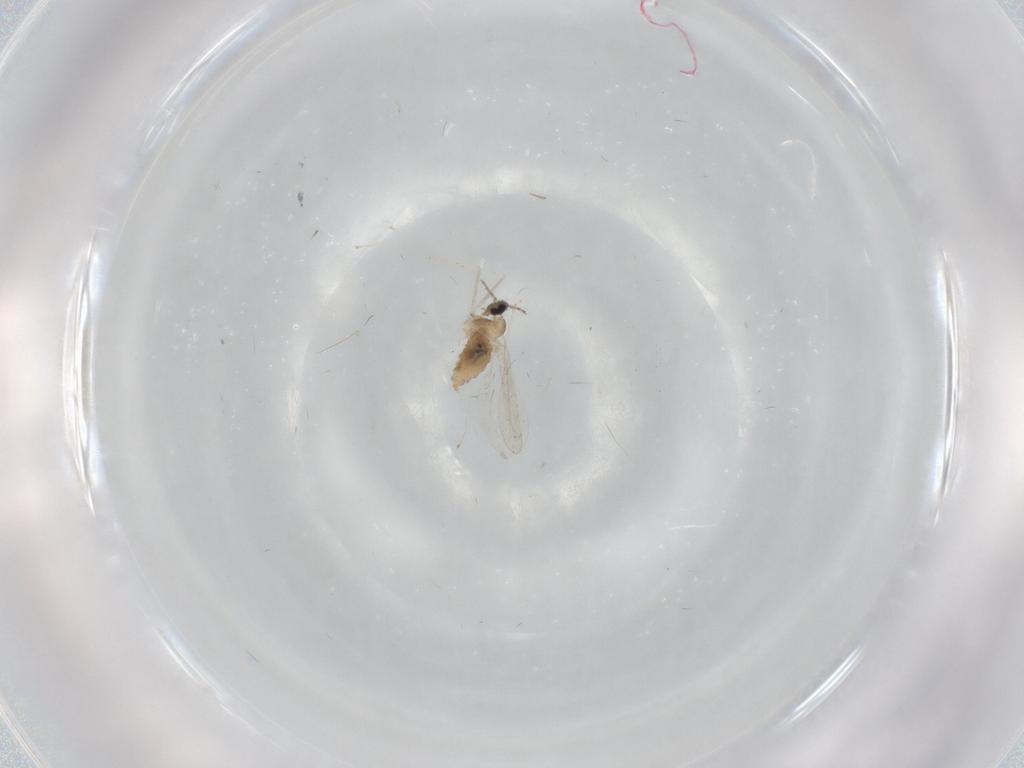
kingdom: Animalia
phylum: Arthropoda
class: Insecta
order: Diptera
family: Cecidomyiidae
